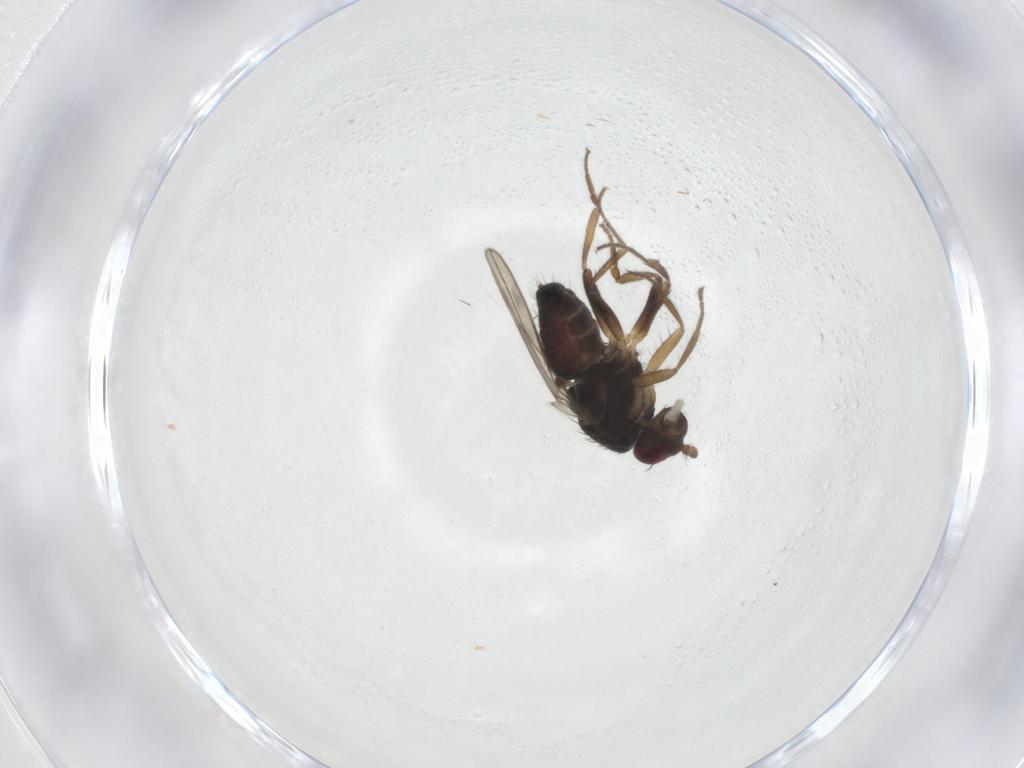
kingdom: Animalia
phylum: Arthropoda
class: Insecta
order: Diptera
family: Sphaeroceridae
